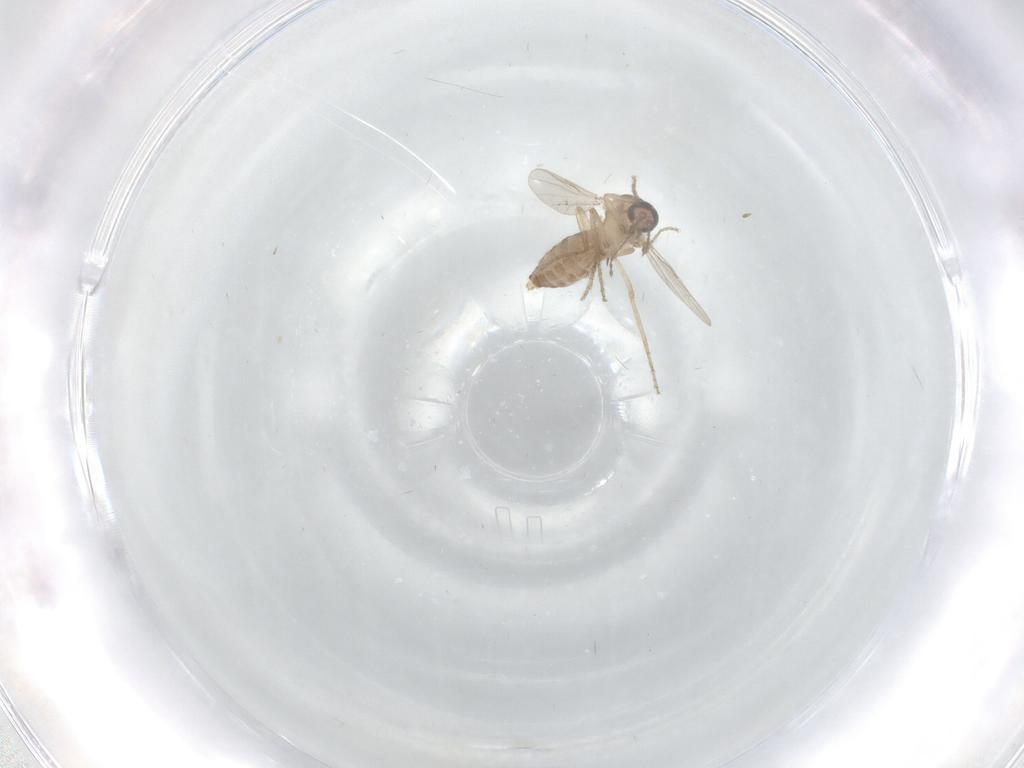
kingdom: Animalia
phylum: Arthropoda
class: Insecta
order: Diptera
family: Ceratopogonidae
